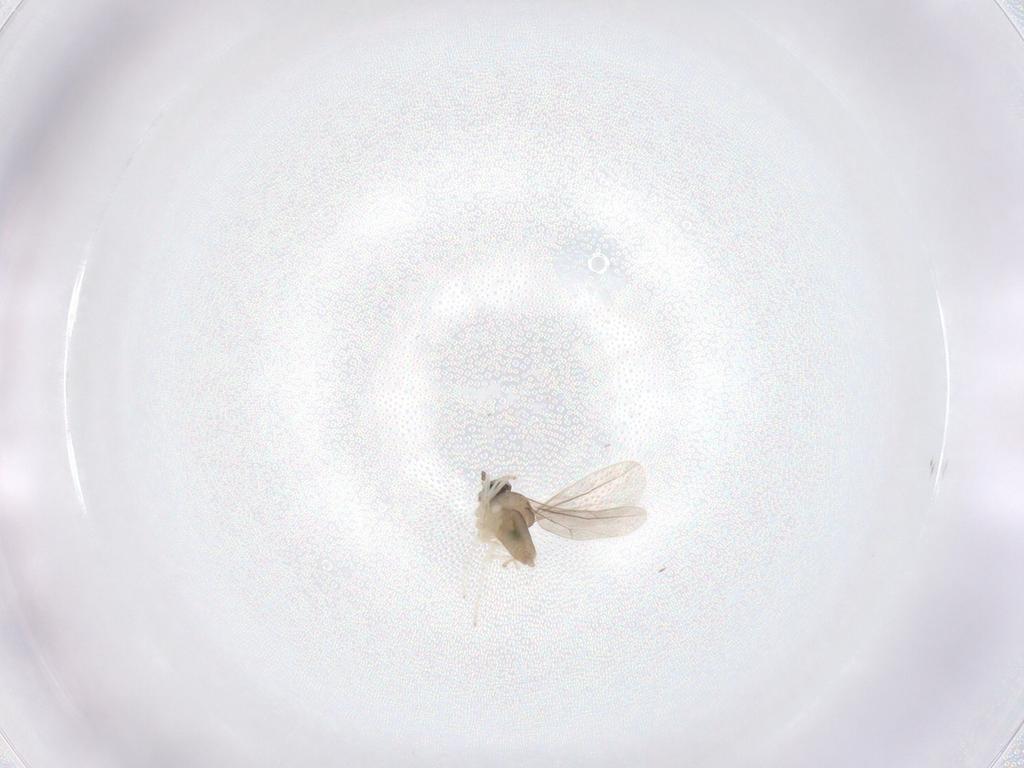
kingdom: Animalia
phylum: Arthropoda
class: Insecta
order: Diptera
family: Cecidomyiidae
